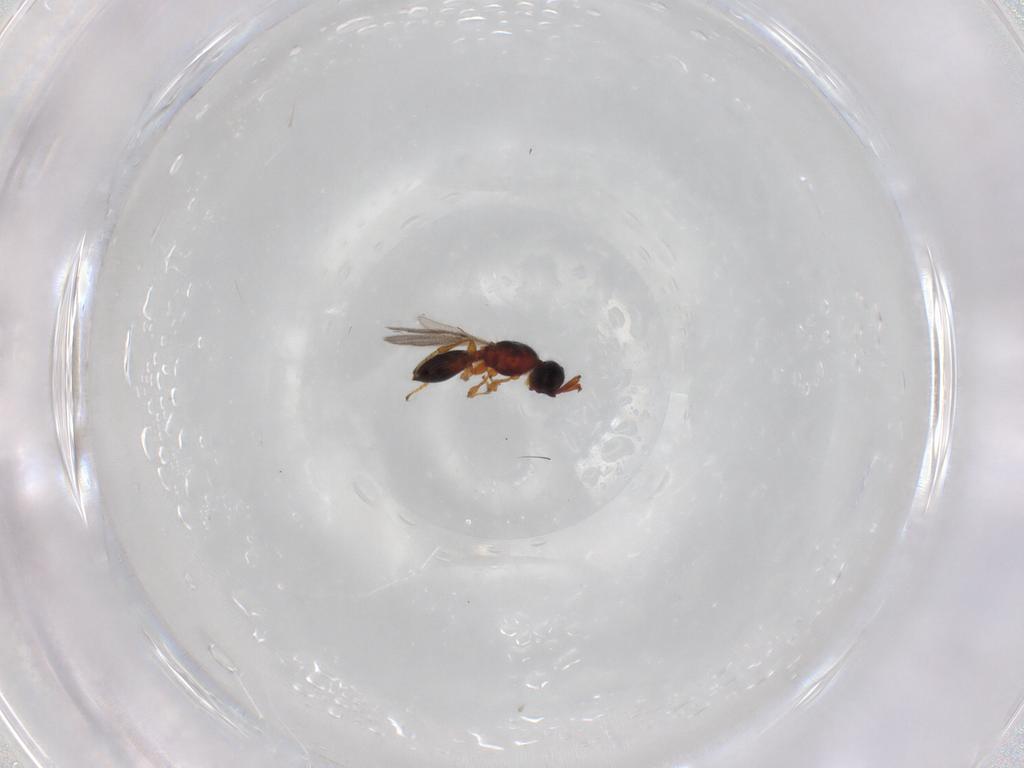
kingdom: Animalia
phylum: Arthropoda
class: Insecta
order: Hymenoptera
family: Diapriidae
